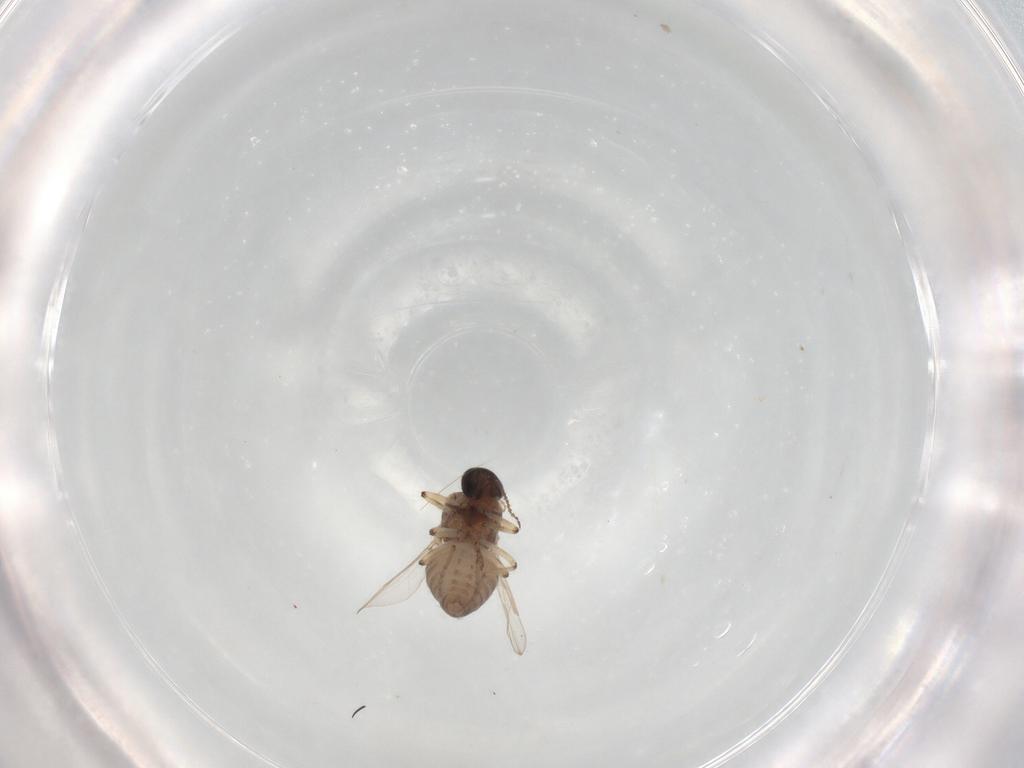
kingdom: Animalia
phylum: Arthropoda
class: Insecta
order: Diptera
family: Ceratopogonidae
